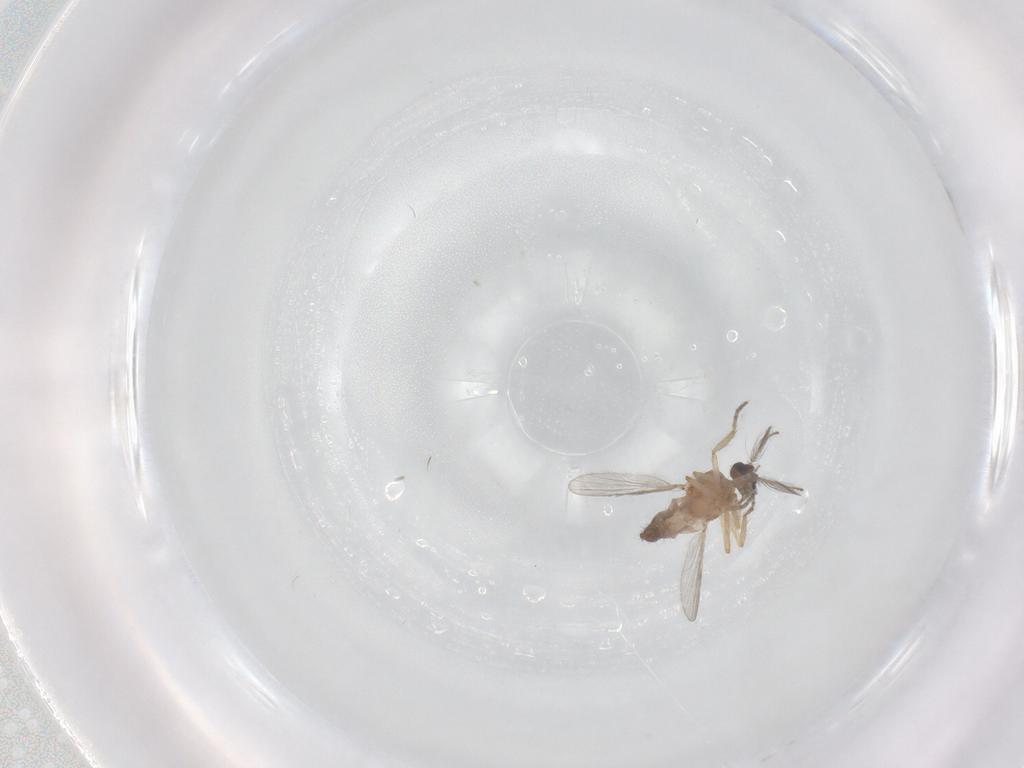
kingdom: Animalia
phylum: Arthropoda
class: Insecta
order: Diptera
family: Ceratopogonidae
